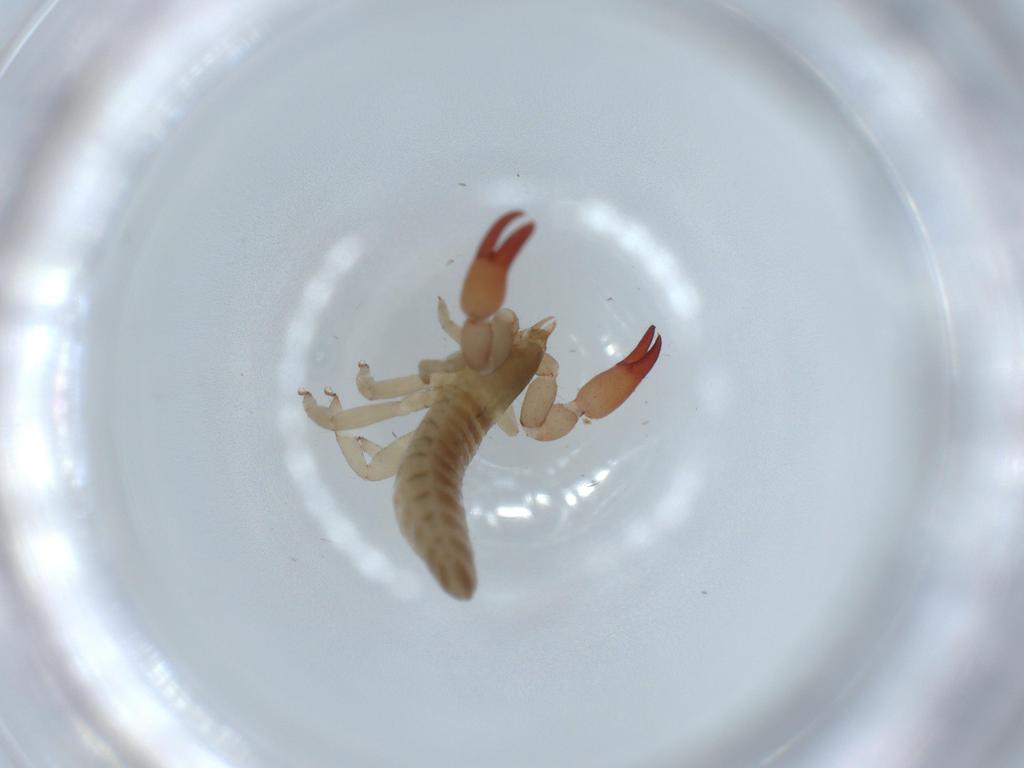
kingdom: Animalia
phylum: Arthropoda
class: Arachnida
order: Pseudoscorpiones
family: Atemnidae
